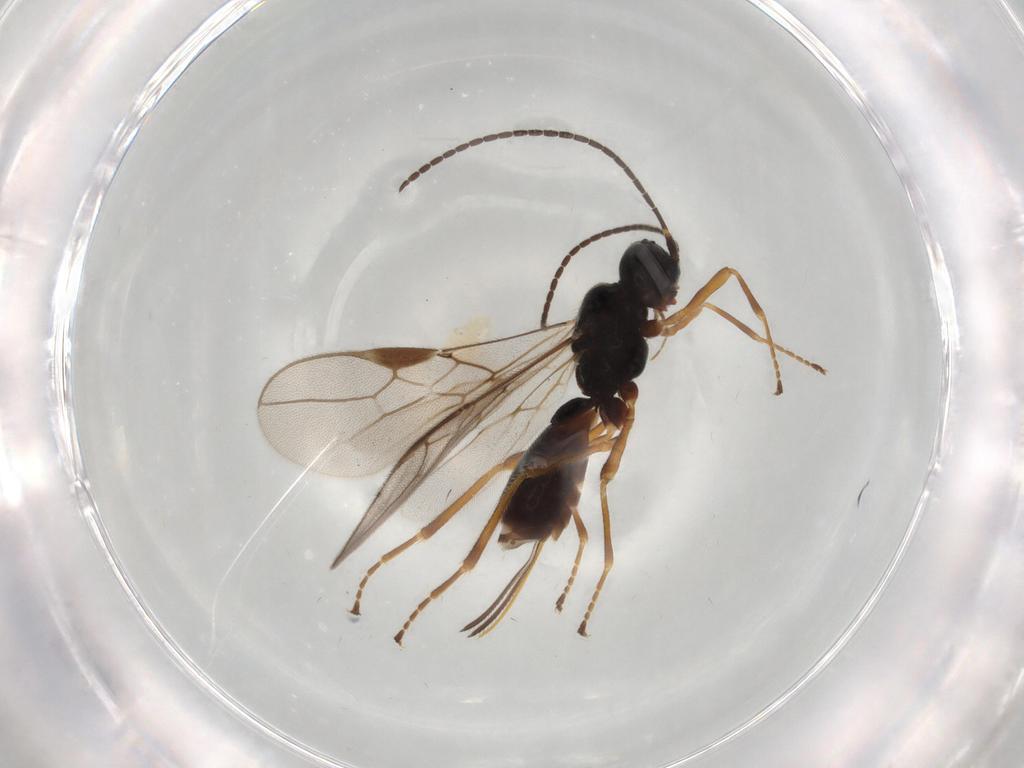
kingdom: Animalia
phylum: Arthropoda
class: Insecta
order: Hymenoptera
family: Braconidae
